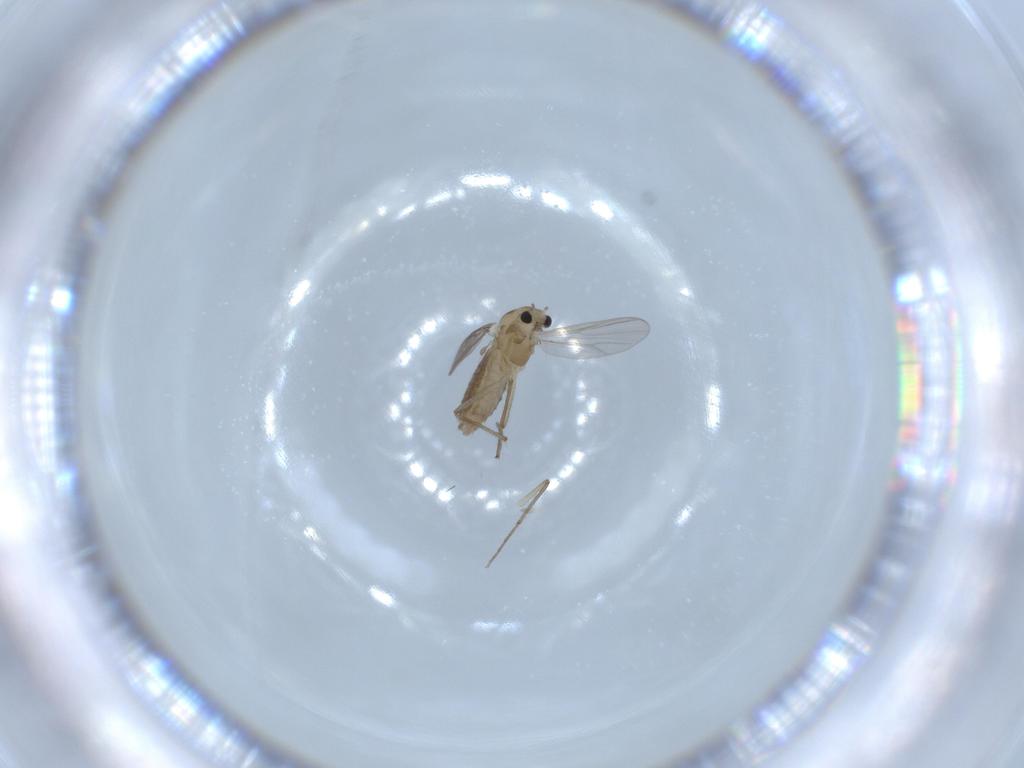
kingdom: Animalia
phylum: Arthropoda
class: Insecta
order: Diptera
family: Chironomidae
